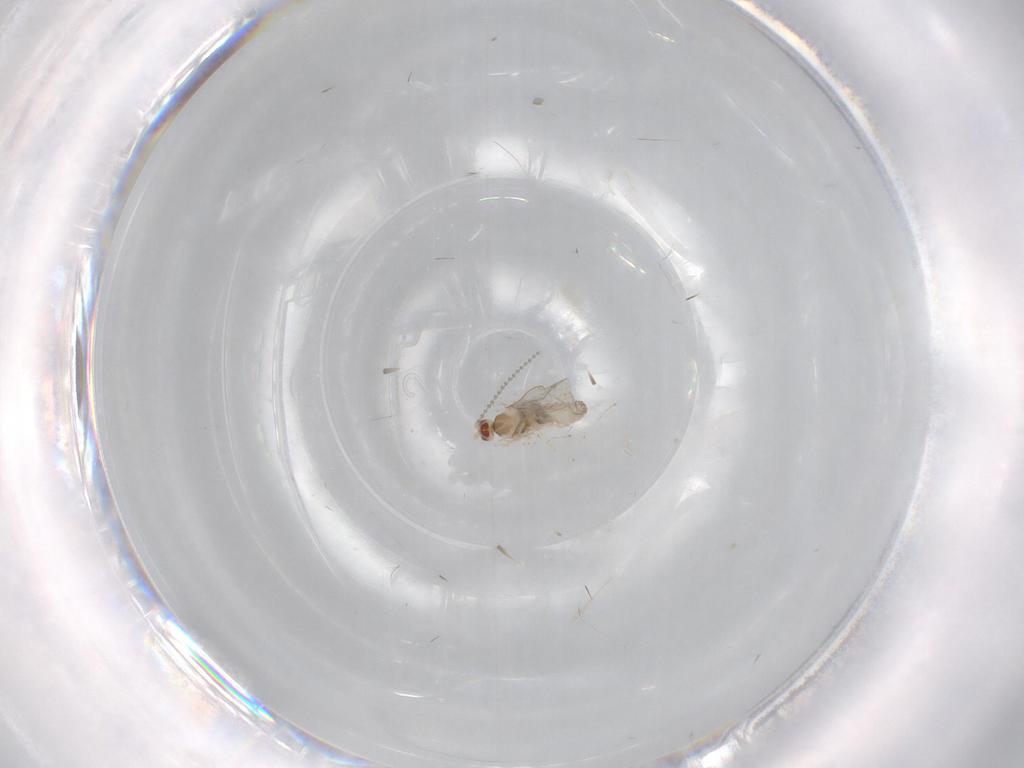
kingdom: Animalia
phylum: Arthropoda
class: Insecta
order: Diptera
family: Cecidomyiidae
